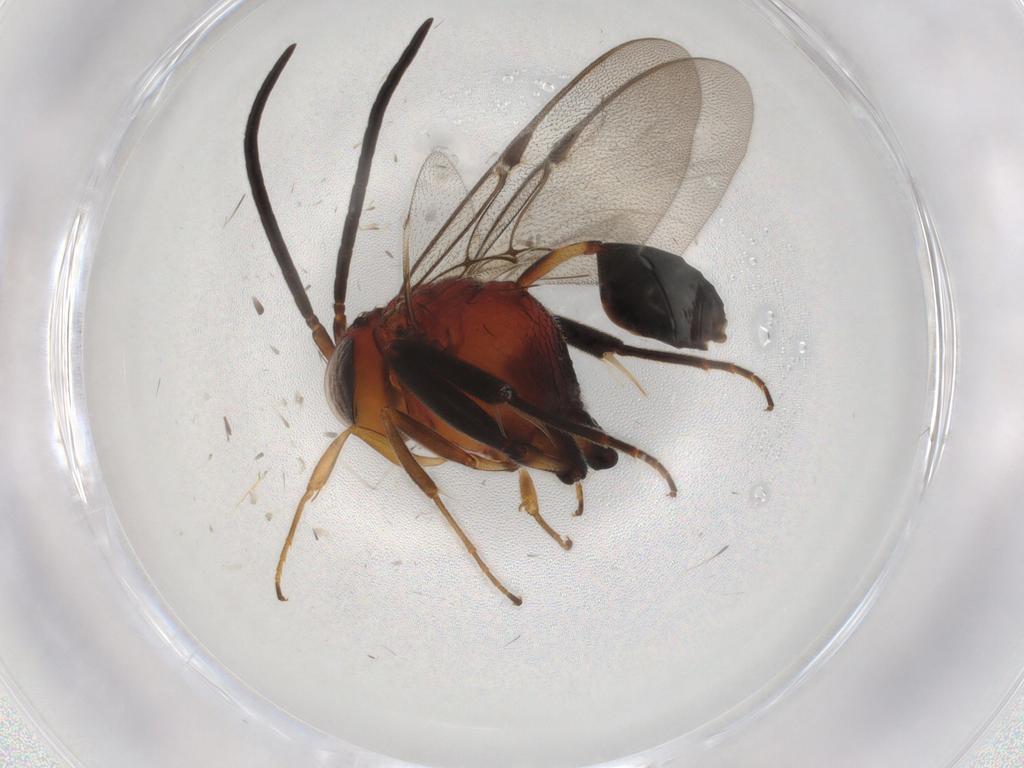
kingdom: Animalia
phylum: Arthropoda
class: Insecta
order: Hymenoptera
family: Evaniidae
